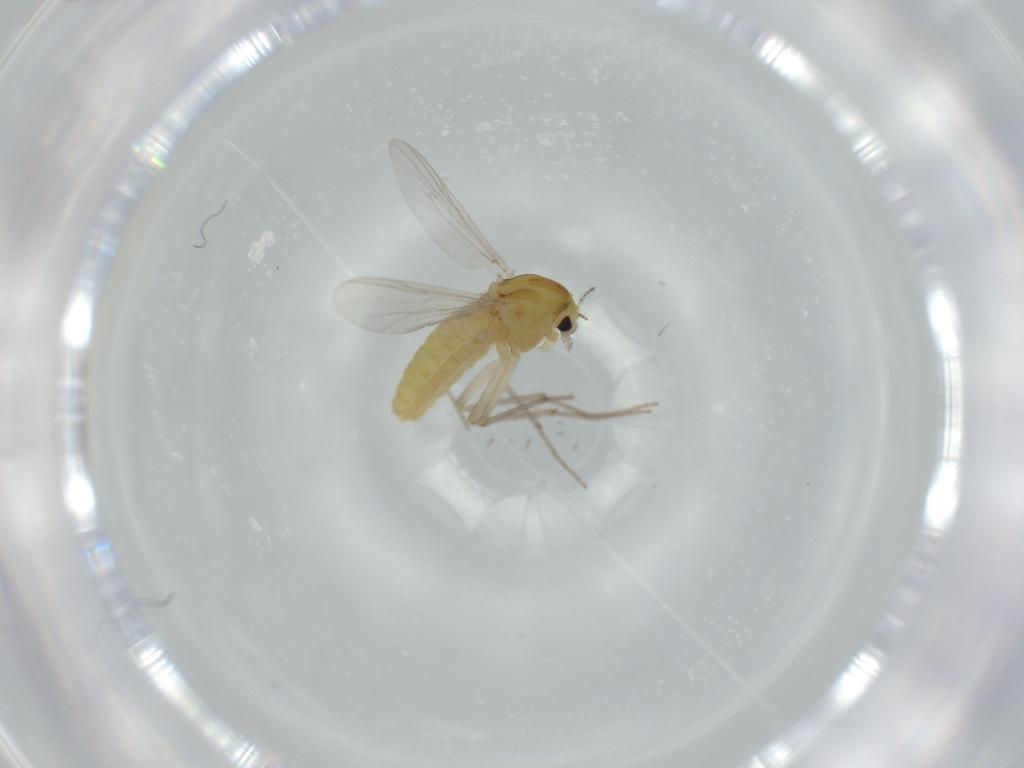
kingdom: Animalia
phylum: Arthropoda
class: Insecta
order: Diptera
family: Chironomidae
